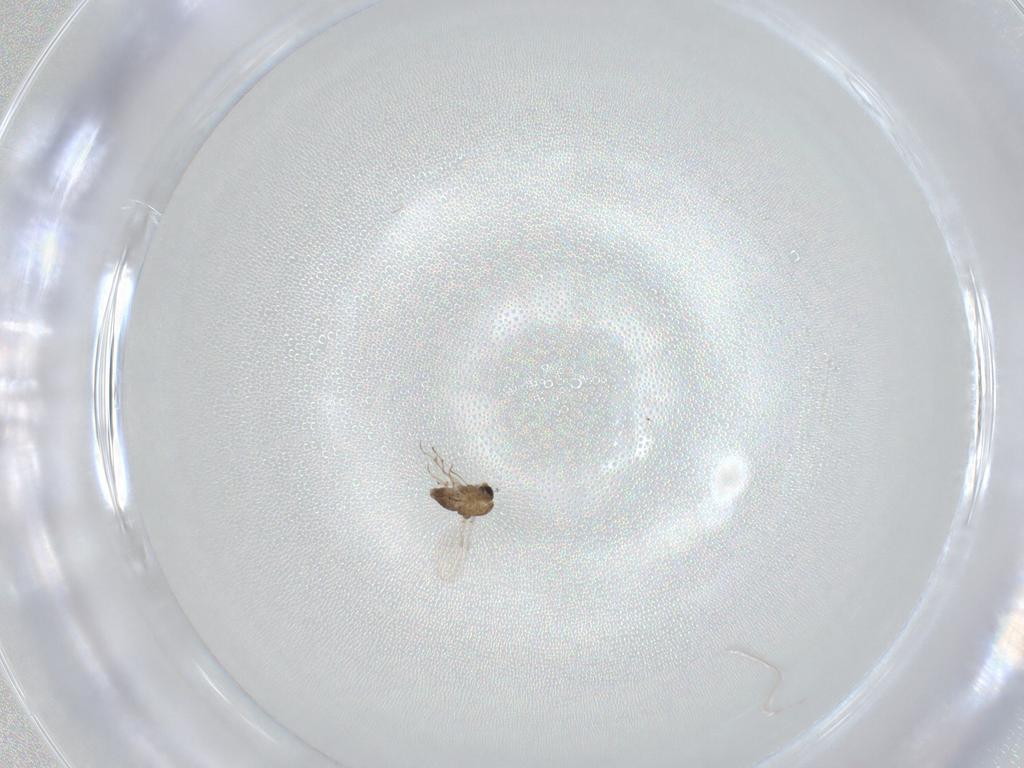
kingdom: Animalia
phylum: Arthropoda
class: Insecta
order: Diptera
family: Chironomidae
